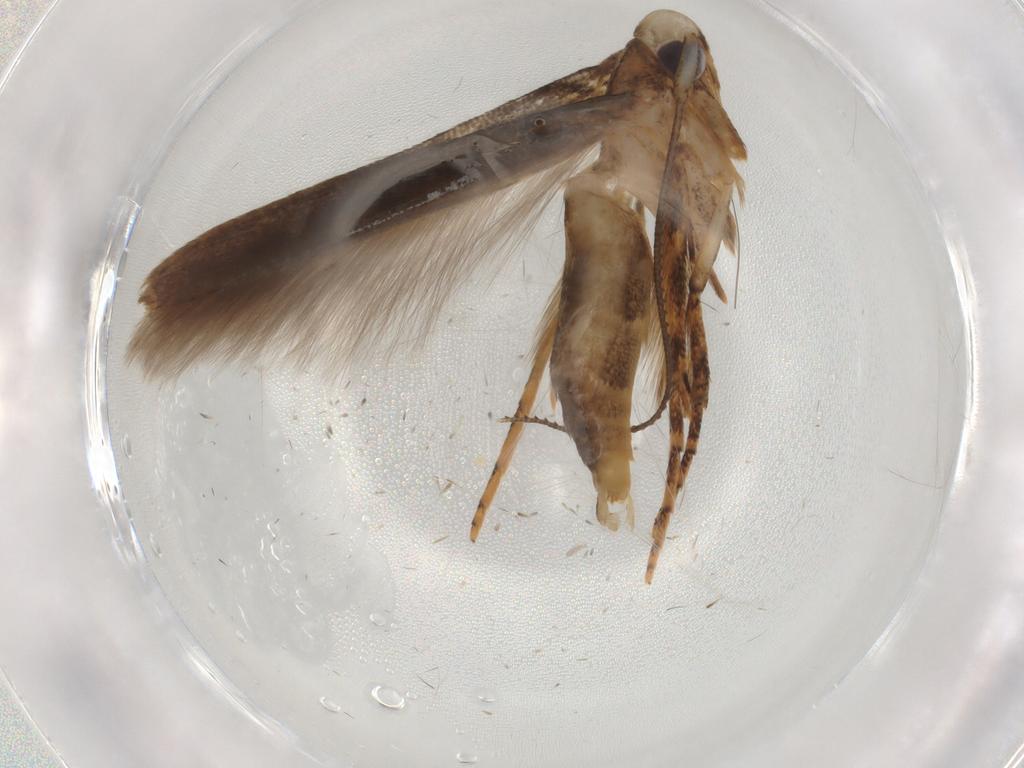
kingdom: Animalia
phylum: Arthropoda
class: Insecta
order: Lepidoptera
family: Gelechiidae
